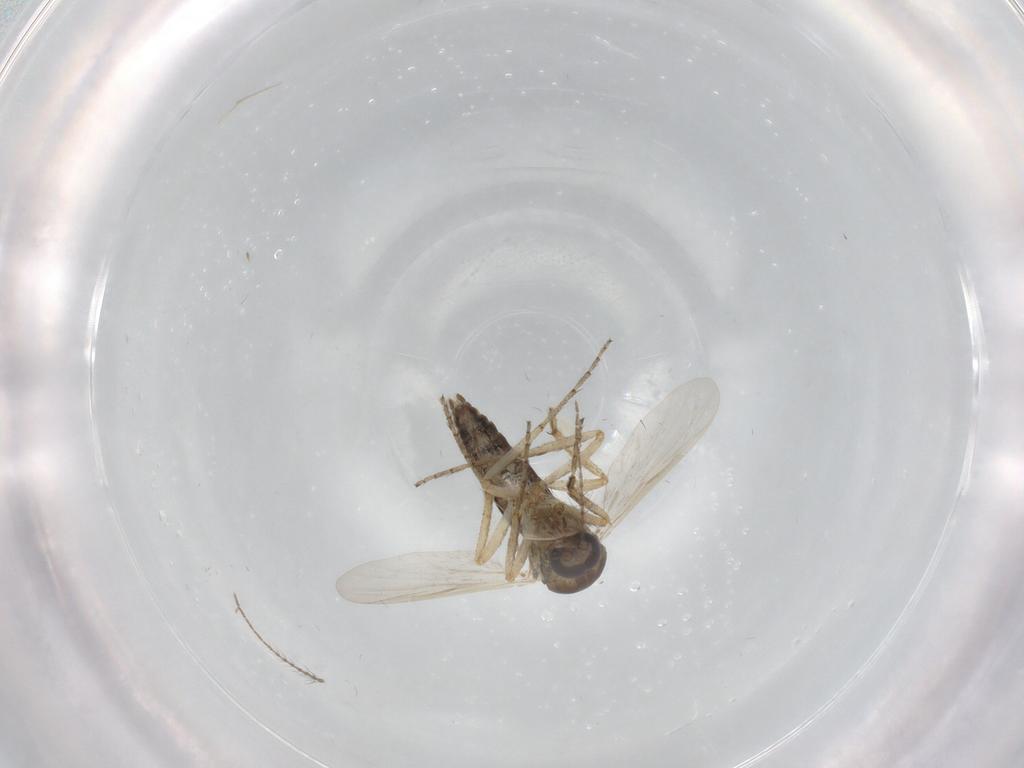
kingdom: Animalia
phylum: Arthropoda
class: Insecta
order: Diptera
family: Ceratopogonidae
